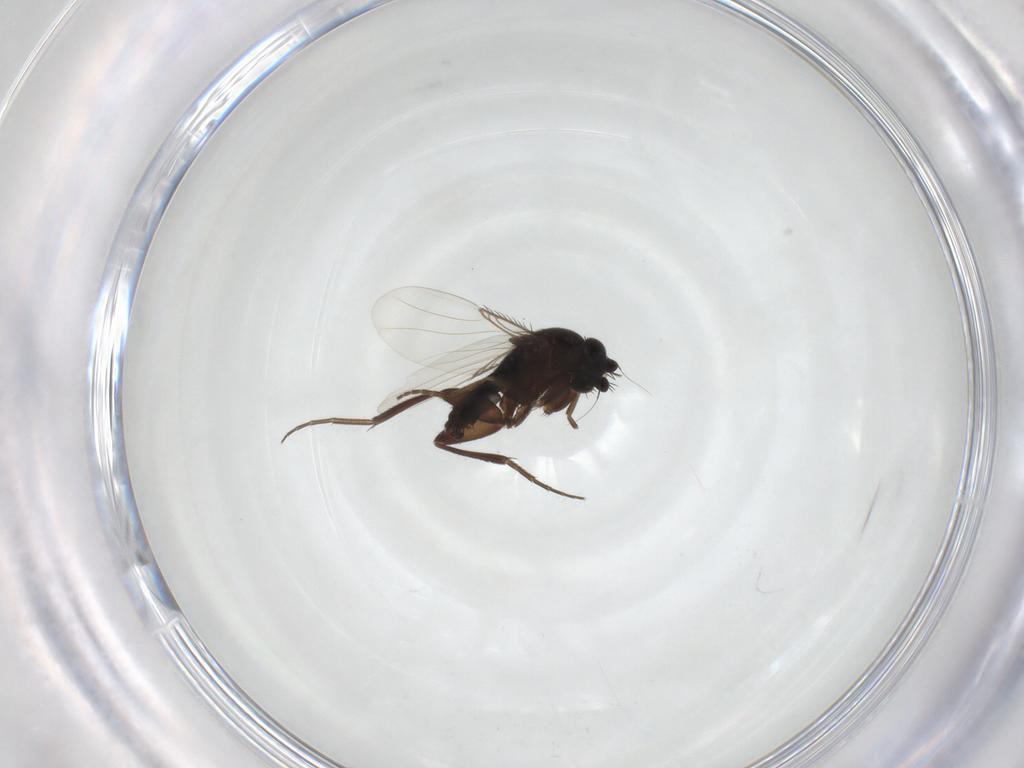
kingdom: Animalia
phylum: Arthropoda
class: Insecta
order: Diptera
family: Phoridae
